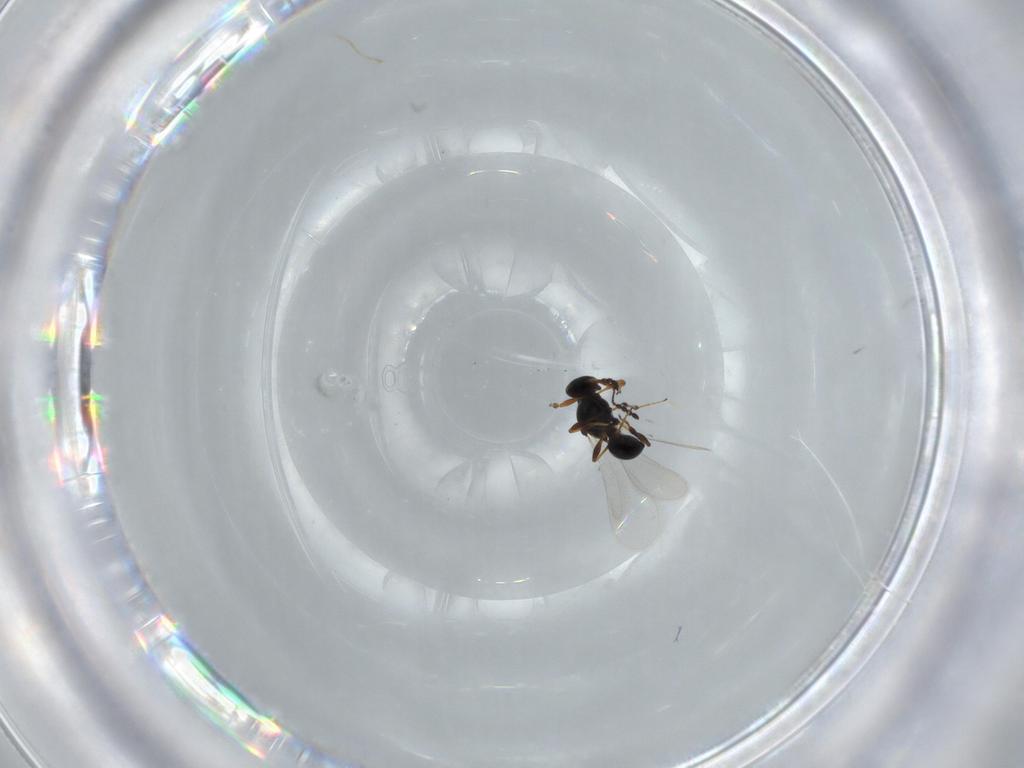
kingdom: Animalia
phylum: Arthropoda
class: Insecta
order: Hymenoptera
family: Platygastridae
